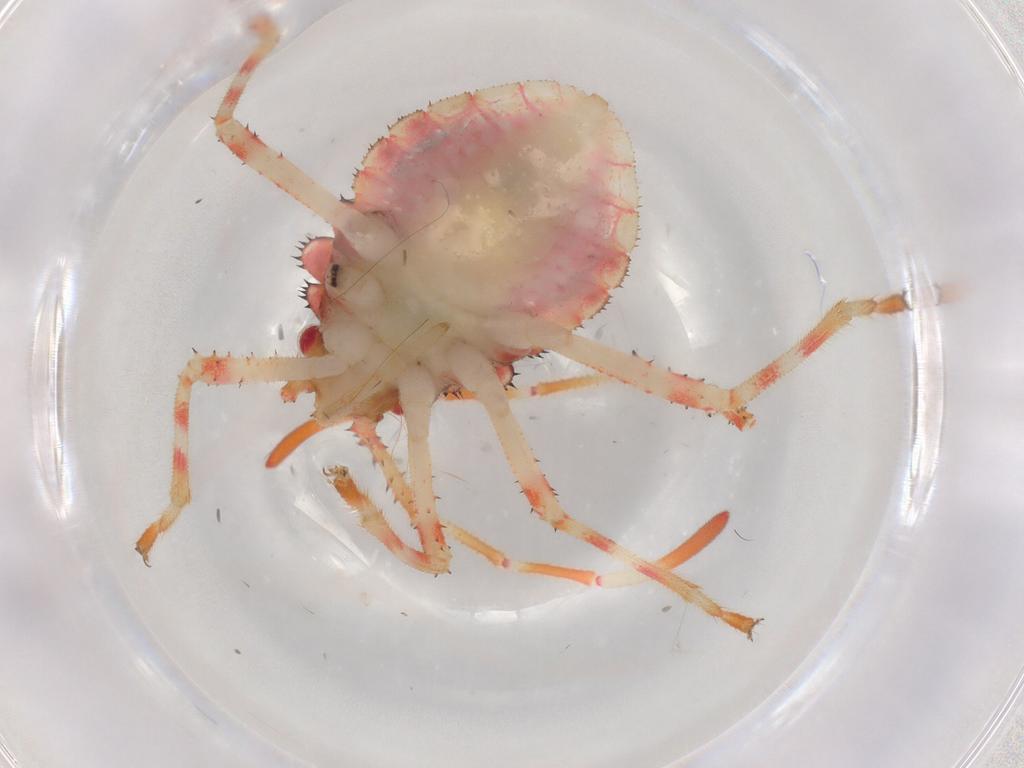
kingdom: Animalia
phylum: Arthropoda
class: Insecta
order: Hemiptera
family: Coreidae
